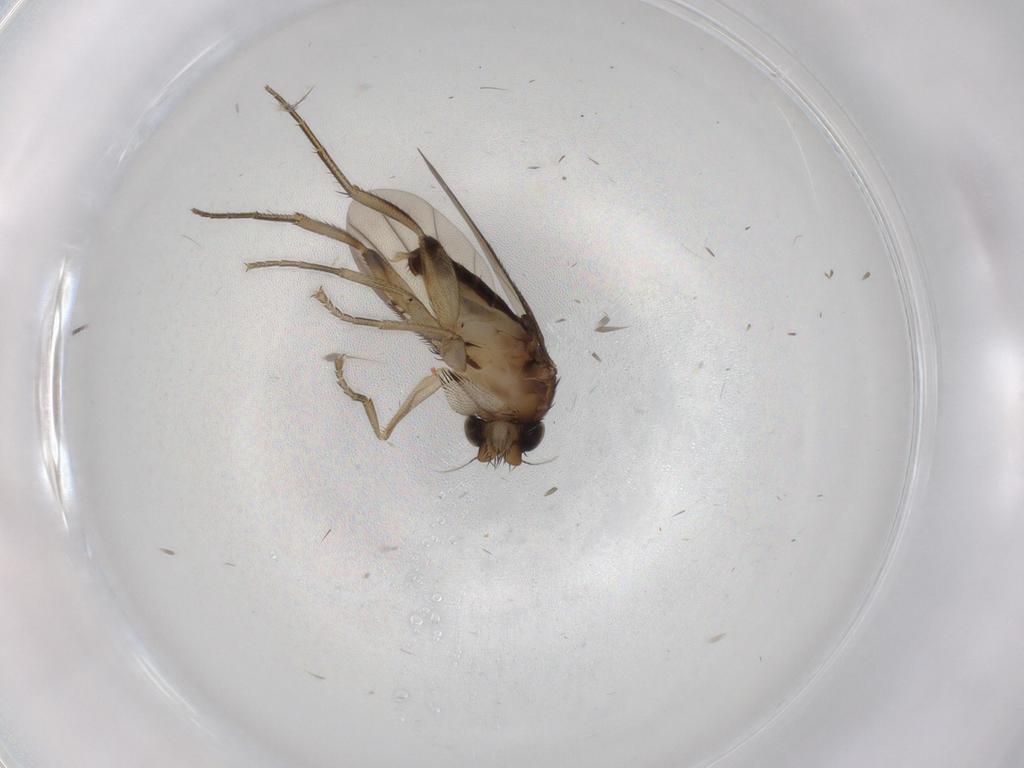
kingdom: Animalia
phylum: Arthropoda
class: Insecta
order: Diptera
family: Phoridae
